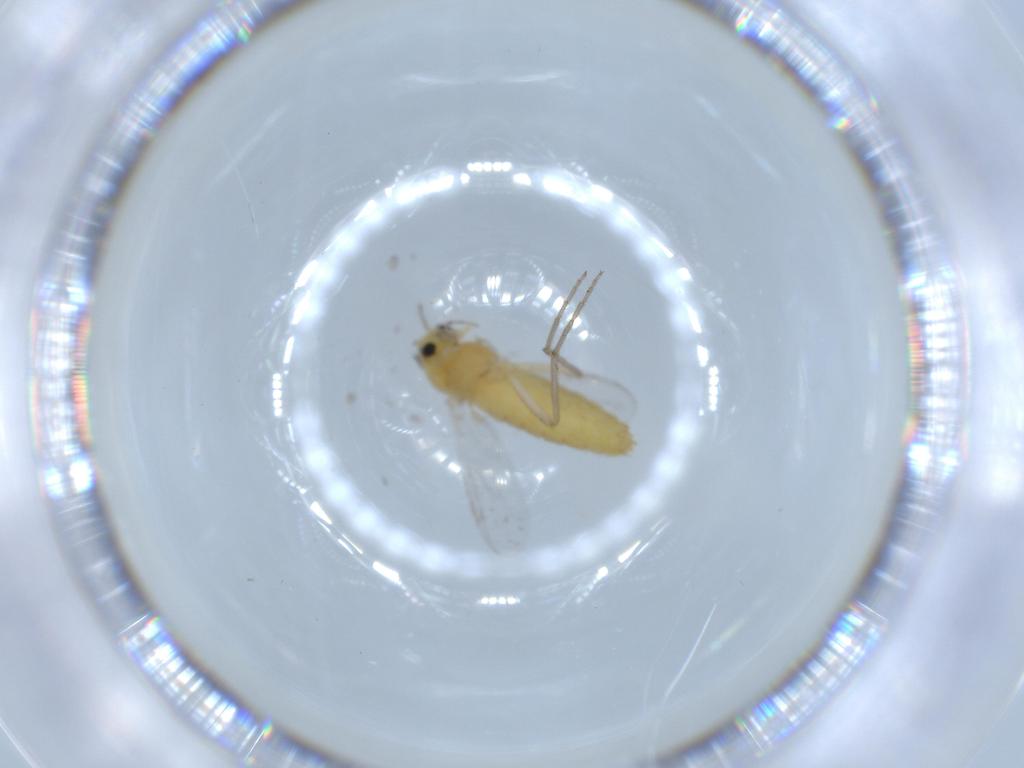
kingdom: Animalia
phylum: Arthropoda
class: Insecta
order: Diptera
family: Chironomidae
